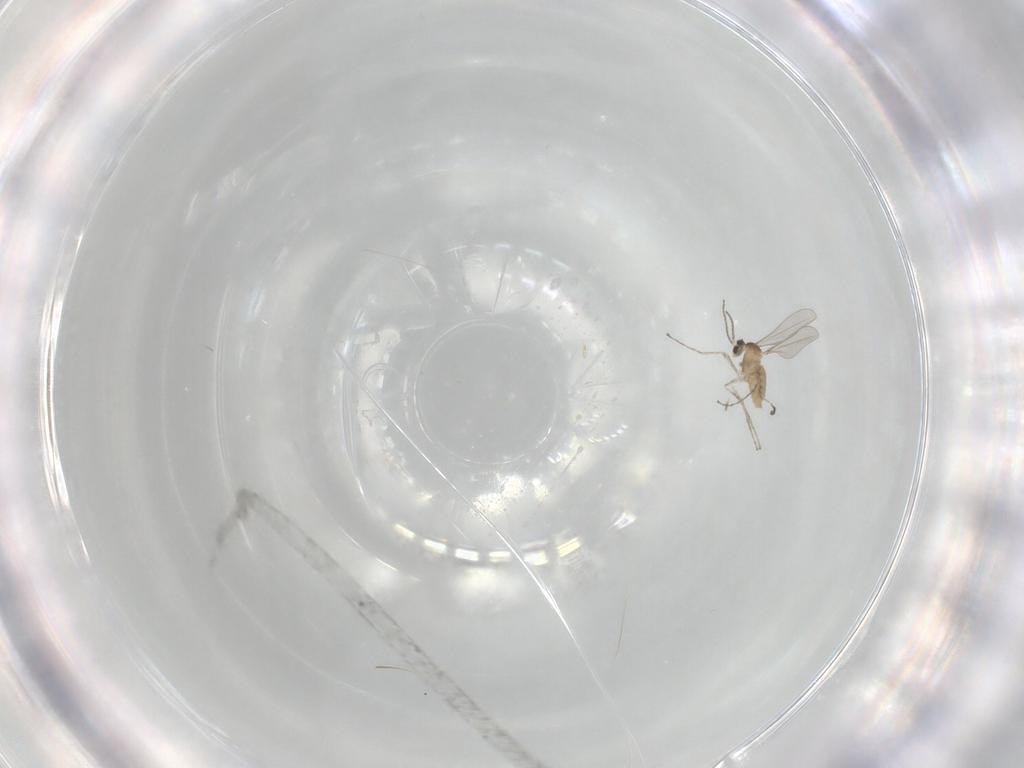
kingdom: Animalia
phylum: Arthropoda
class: Insecta
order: Diptera
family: Cecidomyiidae
